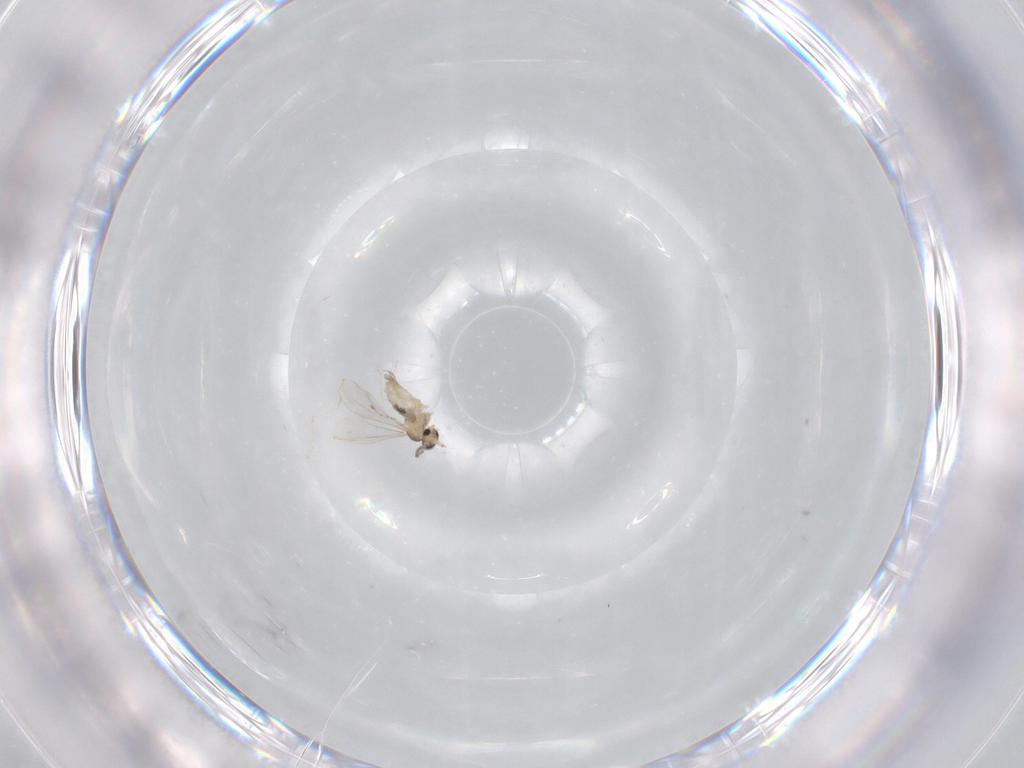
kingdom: Animalia
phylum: Arthropoda
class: Insecta
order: Diptera
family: Cecidomyiidae
